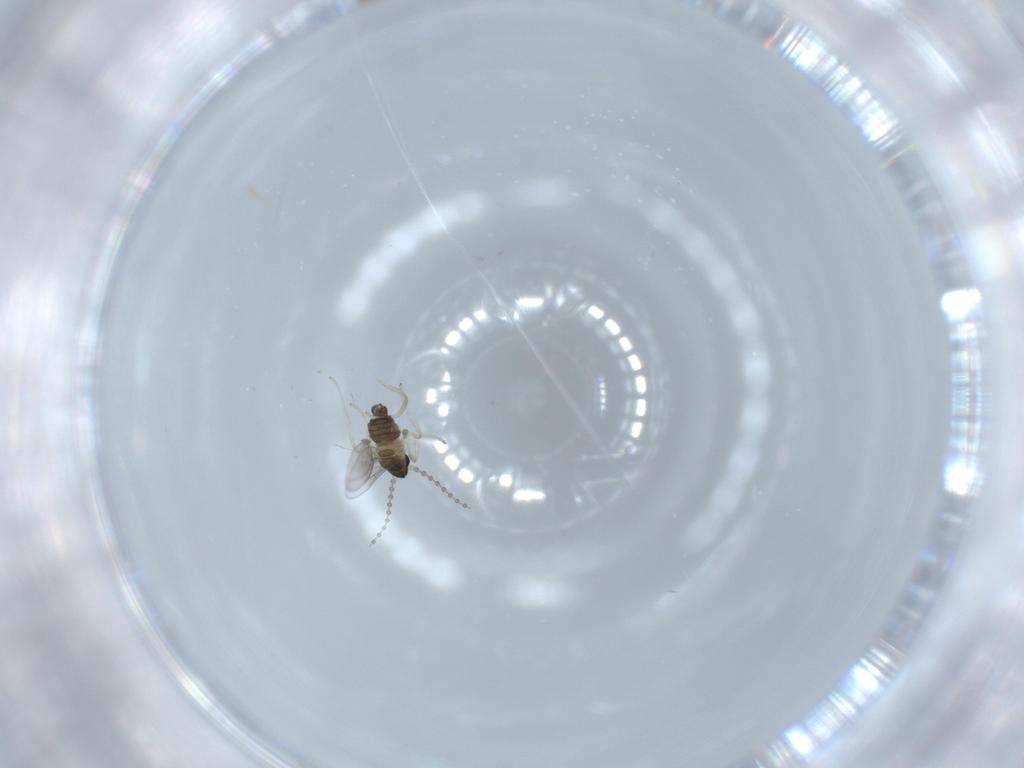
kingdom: Animalia
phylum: Arthropoda
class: Insecta
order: Diptera
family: Cecidomyiidae
